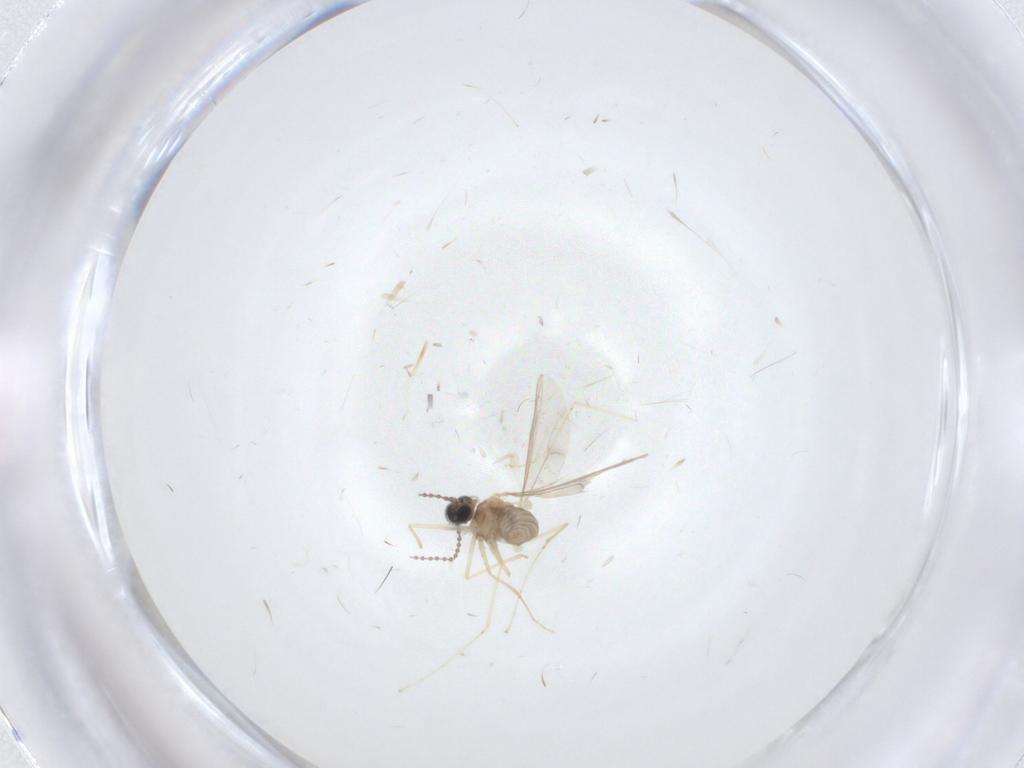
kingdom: Animalia
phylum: Arthropoda
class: Insecta
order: Diptera
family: Cecidomyiidae
